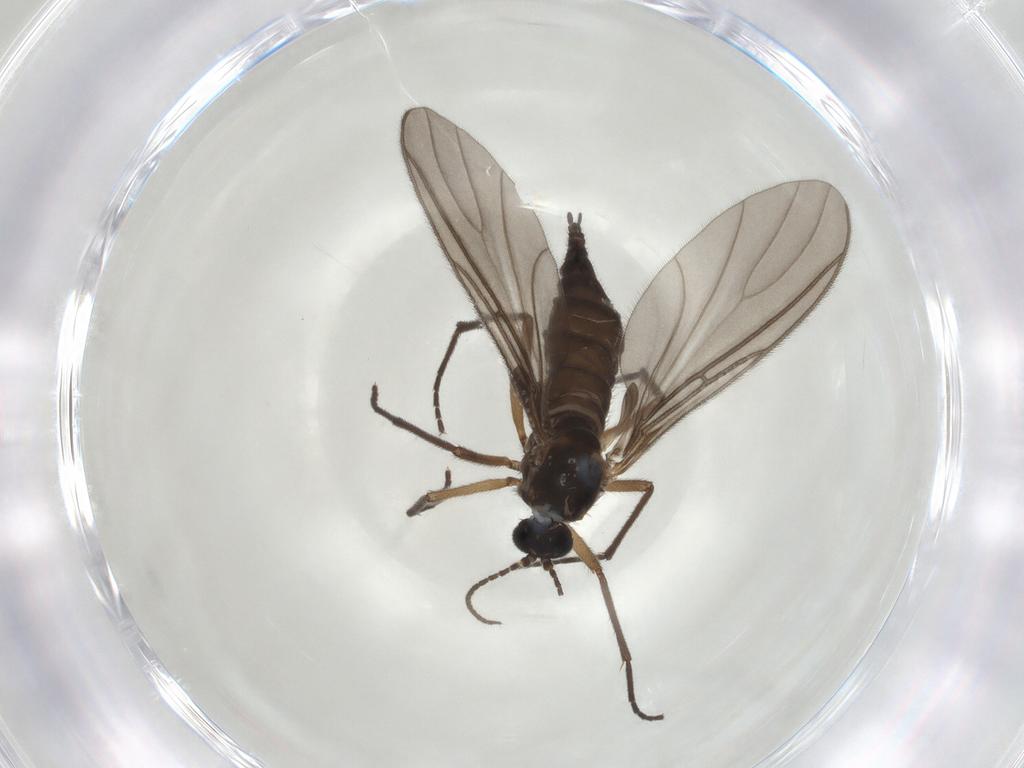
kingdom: Animalia
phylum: Arthropoda
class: Insecta
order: Diptera
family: Sciaridae
